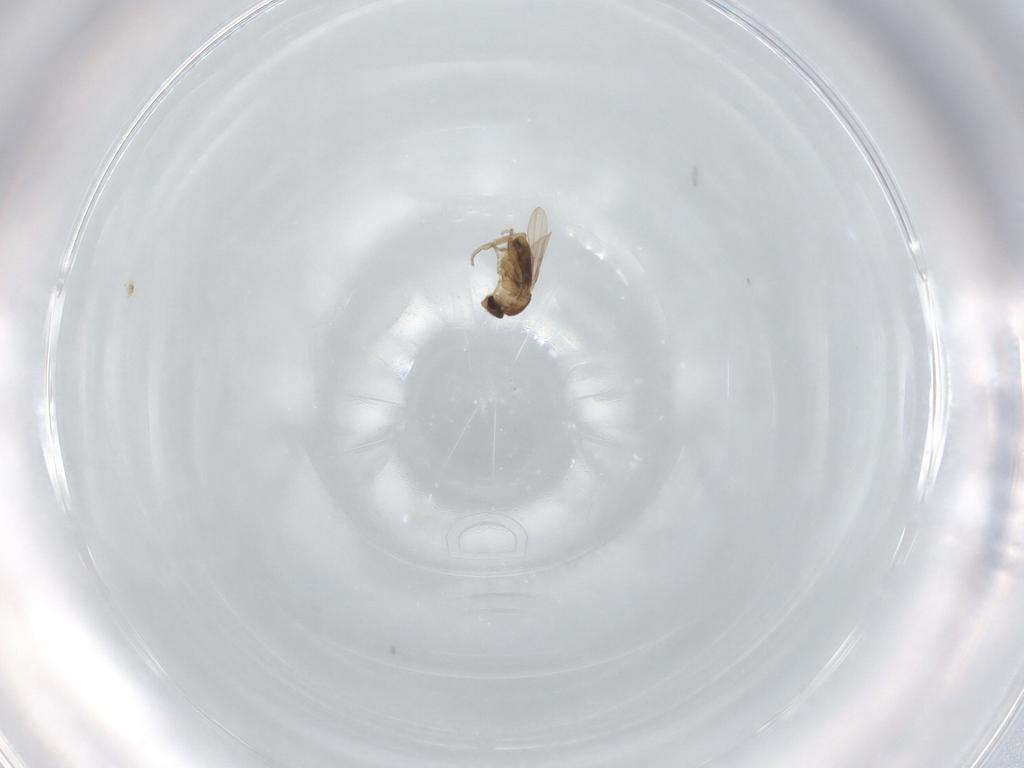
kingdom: Animalia
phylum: Arthropoda
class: Insecta
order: Diptera
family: Phoridae
